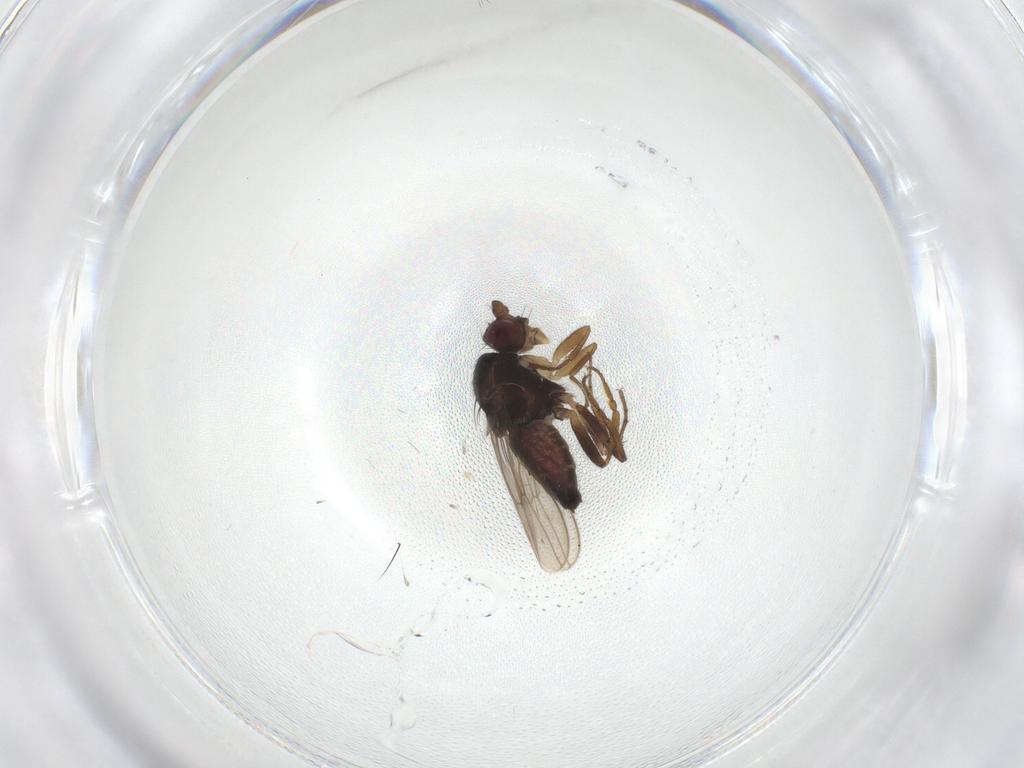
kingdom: Animalia
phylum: Arthropoda
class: Insecta
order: Diptera
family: Sphaeroceridae
